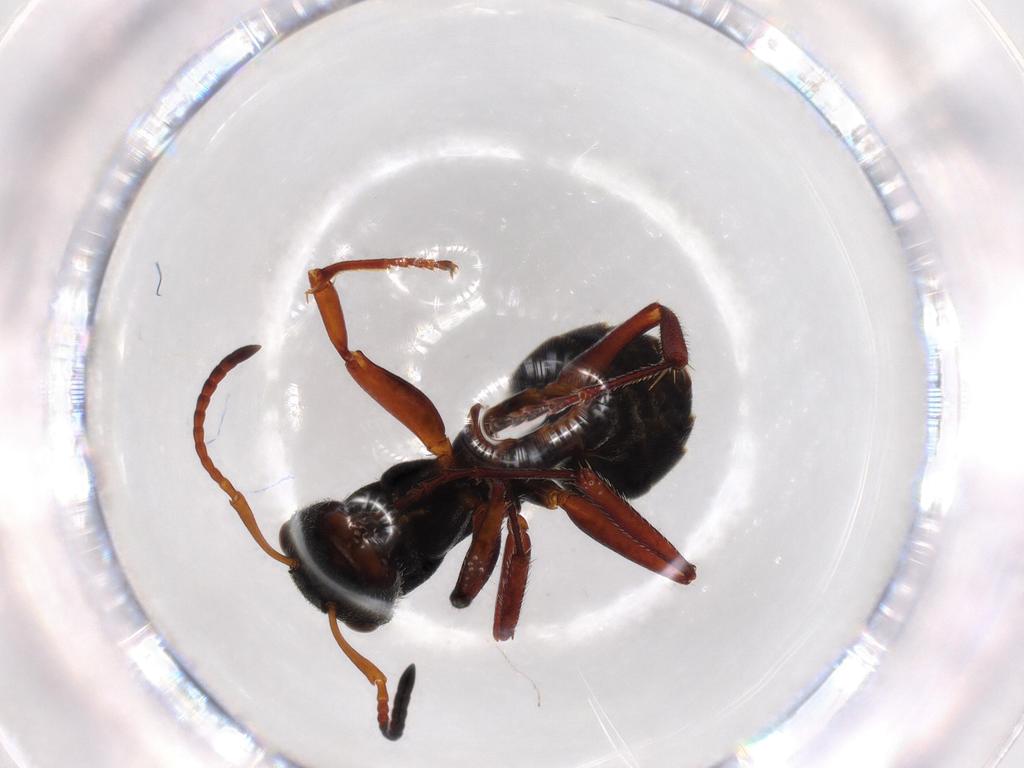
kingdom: Animalia
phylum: Arthropoda
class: Insecta
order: Hymenoptera
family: Formicidae
